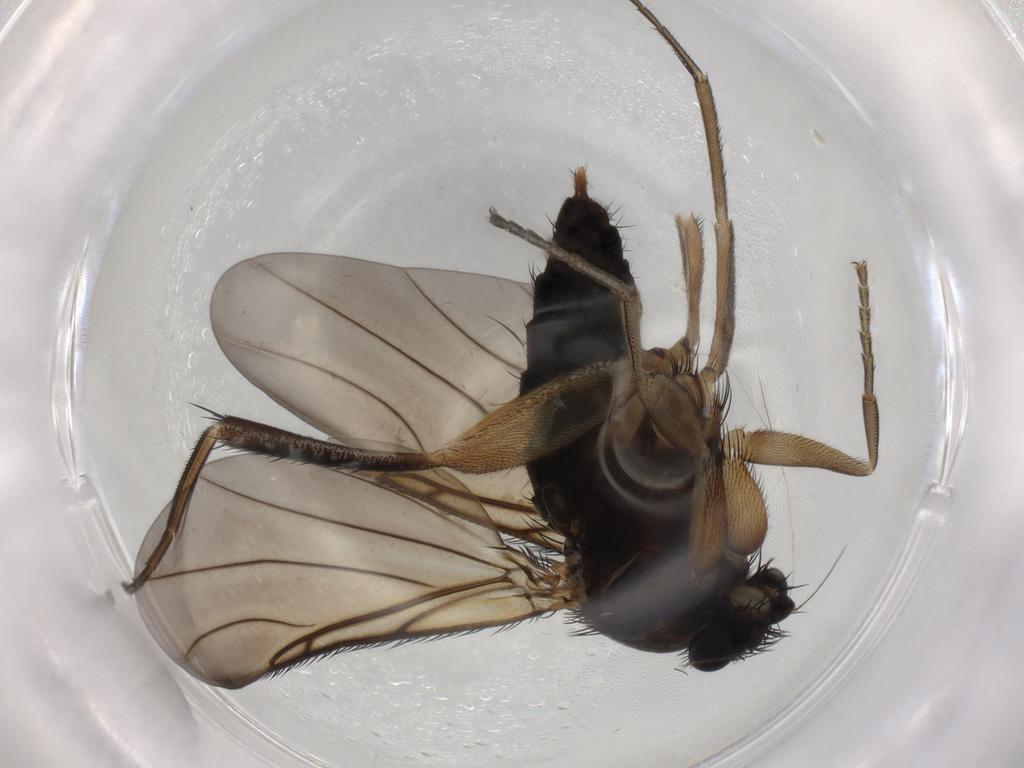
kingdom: Animalia
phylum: Arthropoda
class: Insecta
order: Diptera
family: Phoridae
